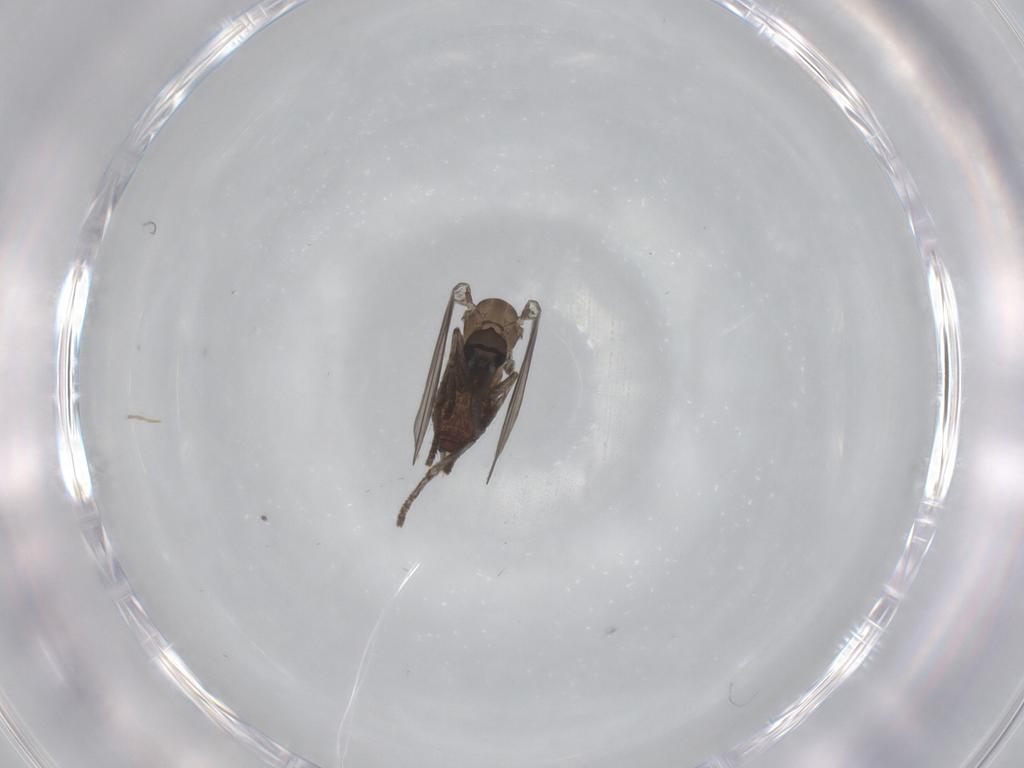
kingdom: Animalia
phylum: Arthropoda
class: Insecta
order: Diptera
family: Psychodidae
